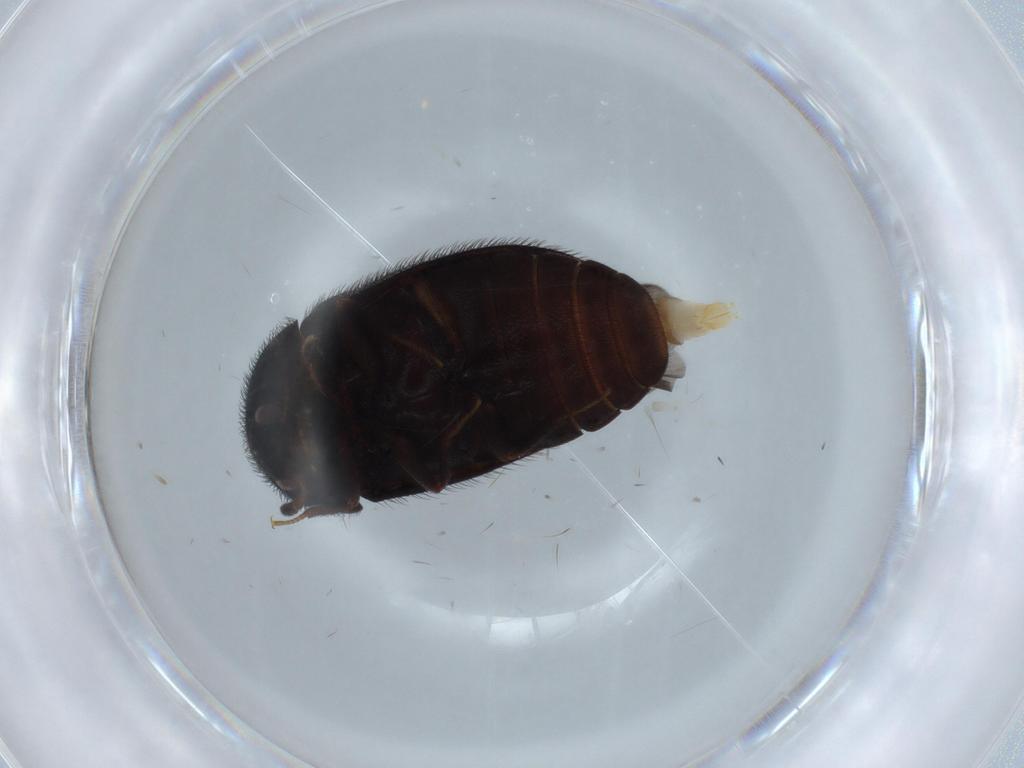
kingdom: Animalia
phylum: Arthropoda
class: Insecta
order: Coleoptera
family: Dermestidae
